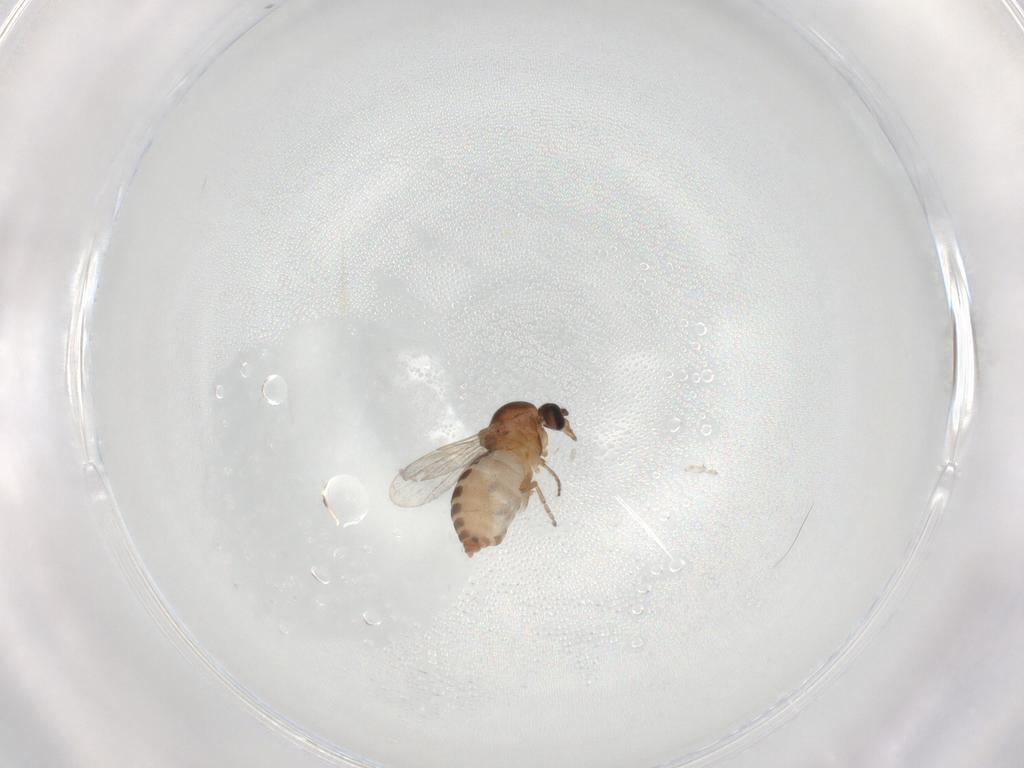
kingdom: Animalia
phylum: Arthropoda
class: Insecta
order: Diptera
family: Ceratopogonidae
